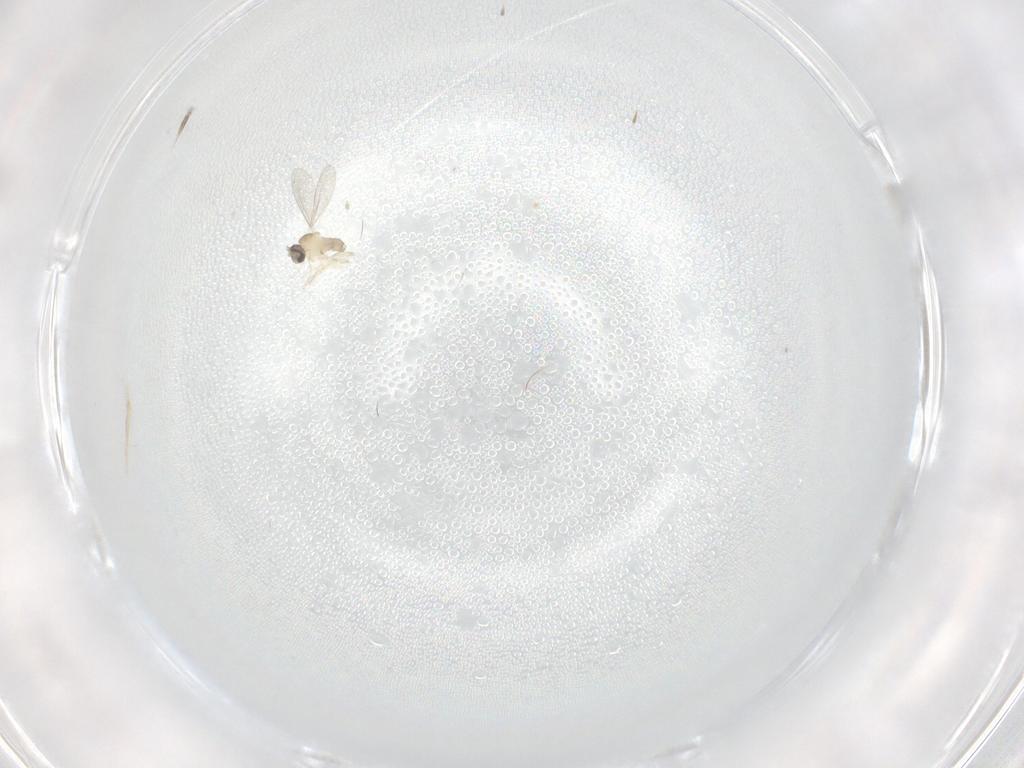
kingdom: Animalia
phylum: Arthropoda
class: Insecta
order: Diptera
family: Cecidomyiidae
